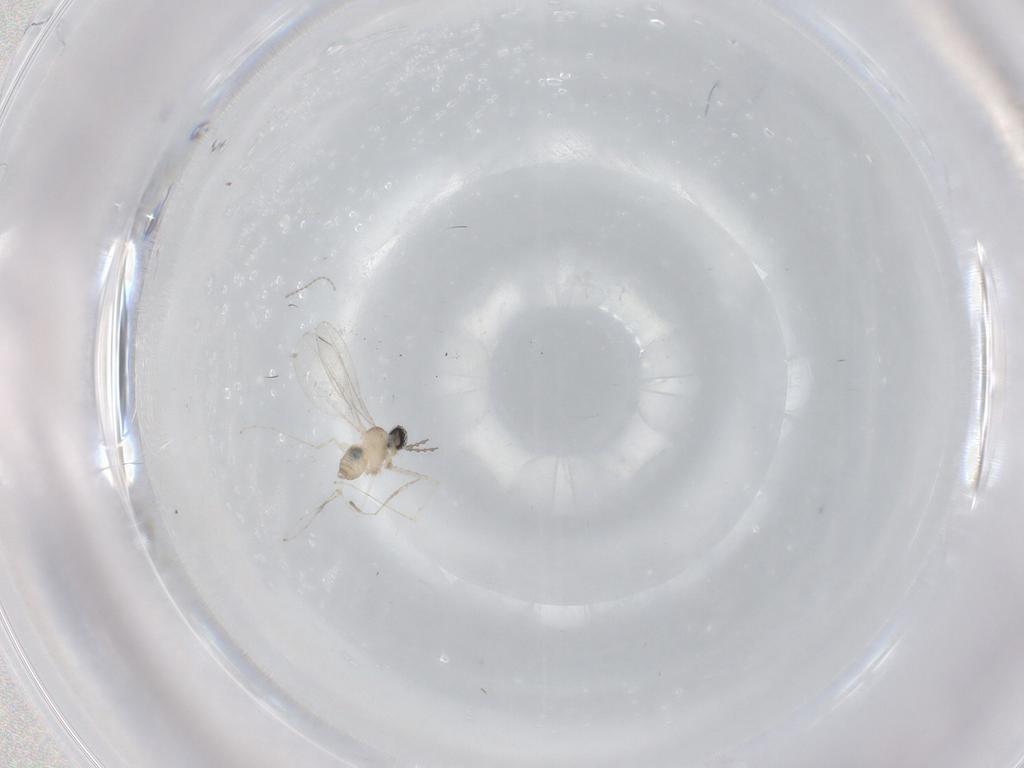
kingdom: Animalia
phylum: Arthropoda
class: Insecta
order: Diptera
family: Cecidomyiidae
